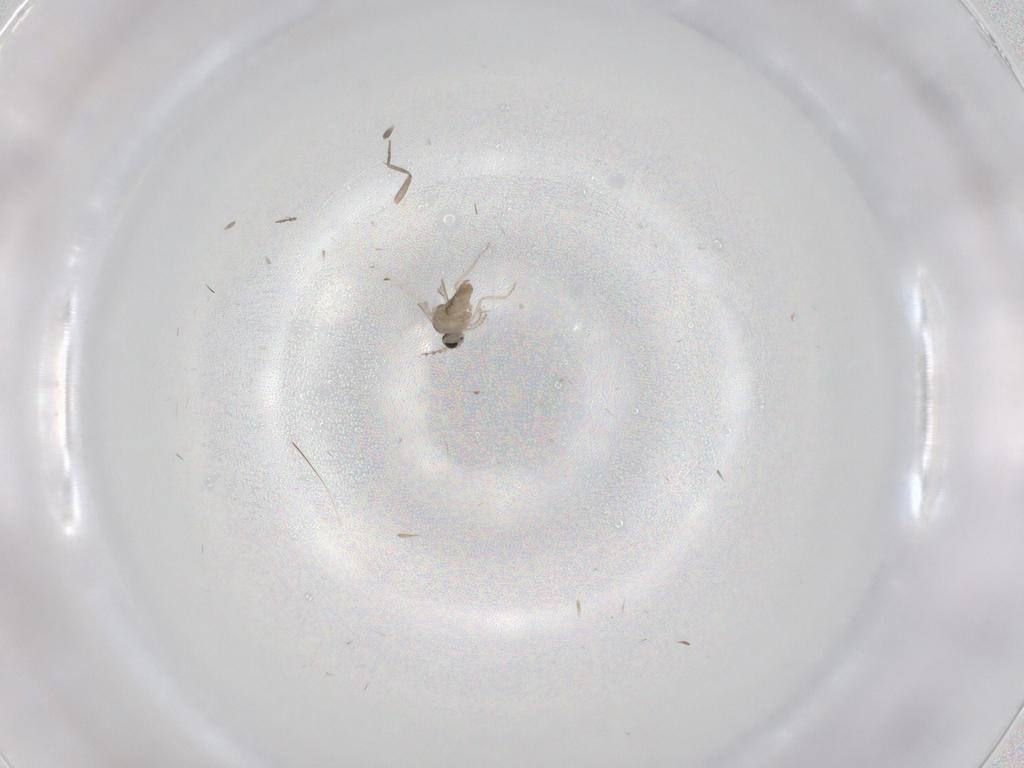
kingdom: Animalia
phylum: Arthropoda
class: Insecta
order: Diptera
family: Cecidomyiidae
